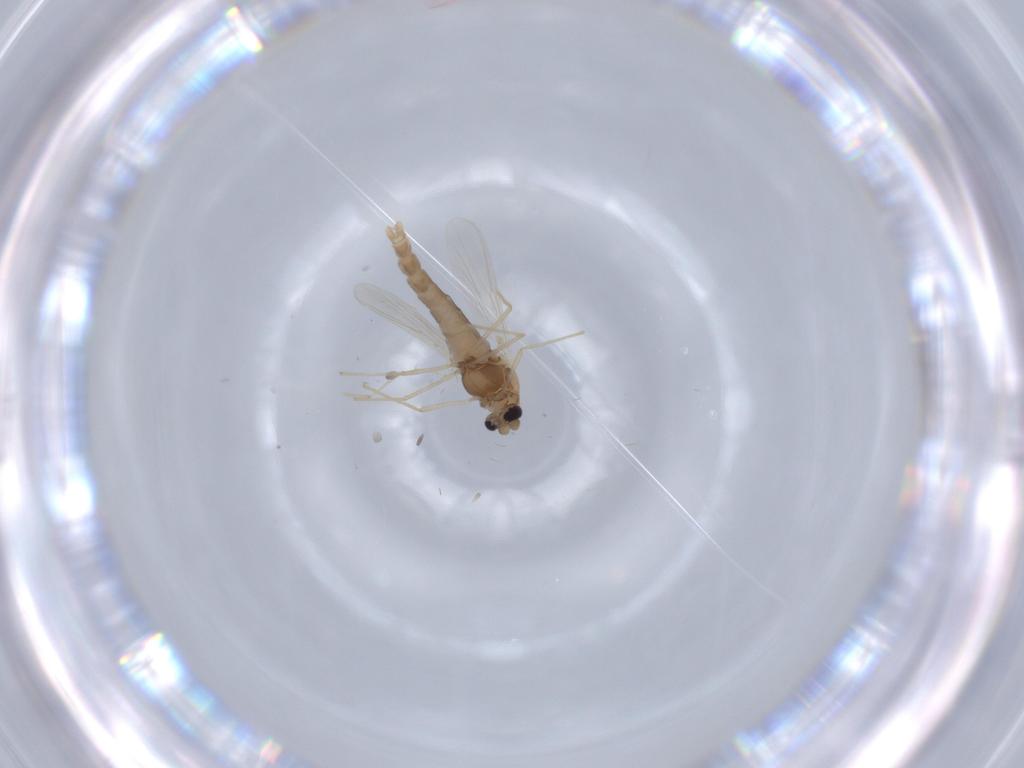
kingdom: Animalia
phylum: Arthropoda
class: Insecta
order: Diptera
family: Chironomidae
